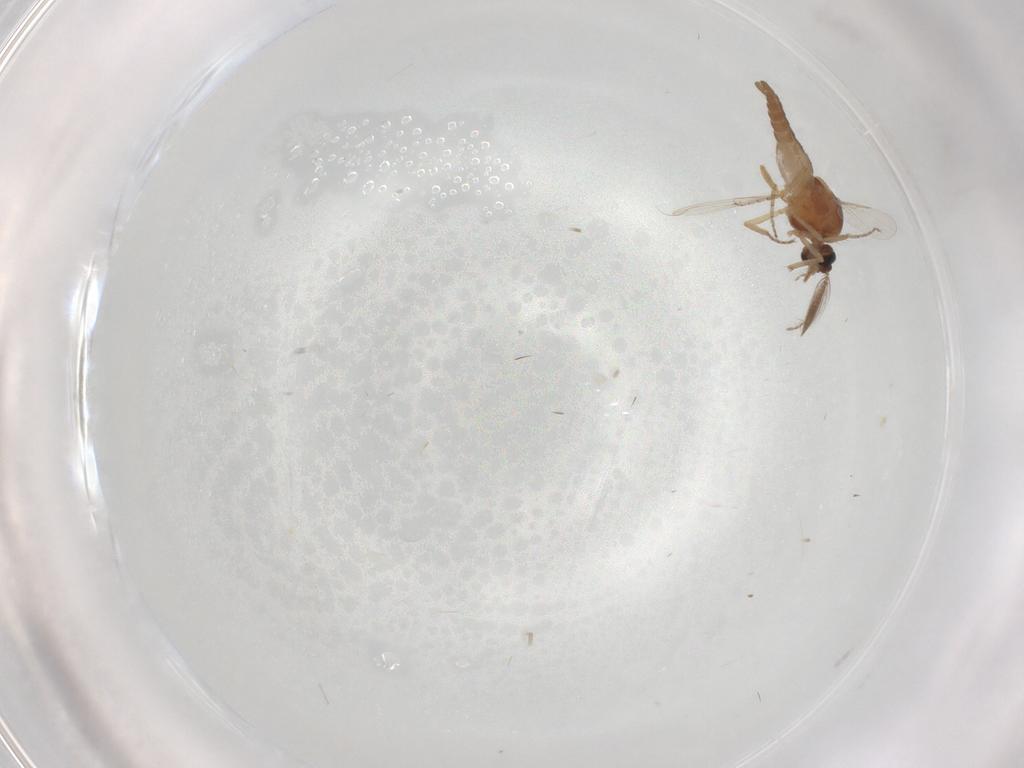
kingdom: Animalia
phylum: Arthropoda
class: Insecta
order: Diptera
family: Ceratopogonidae
